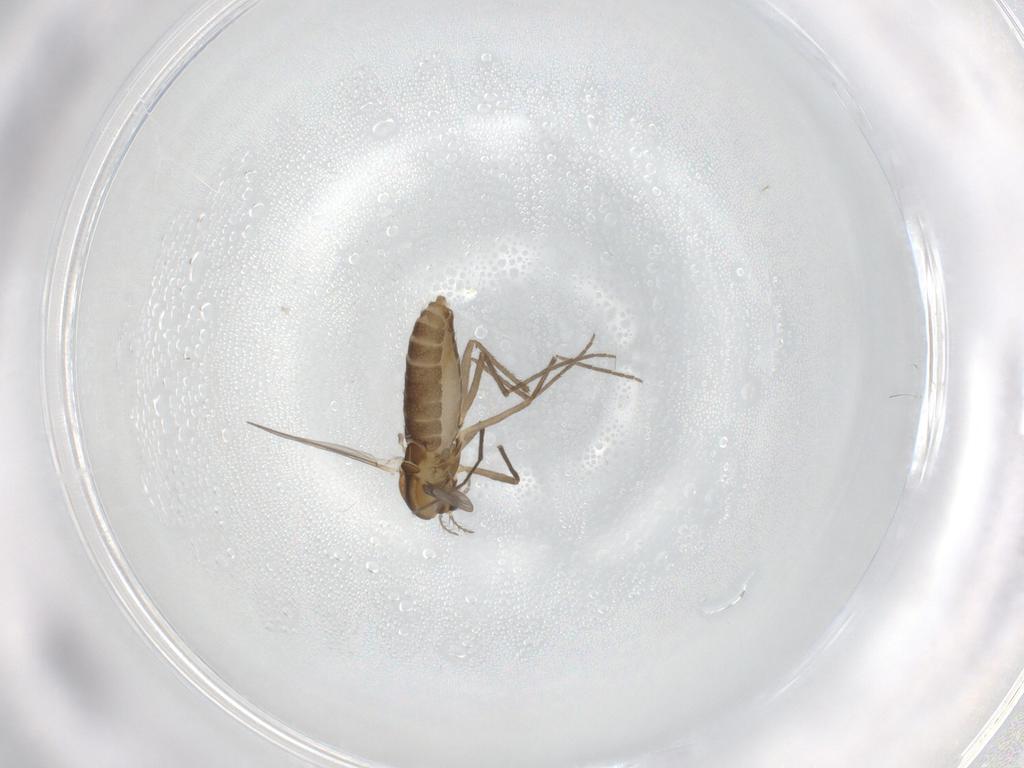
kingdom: Animalia
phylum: Arthropoda
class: Insecta
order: Diptera
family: Chironomidae
